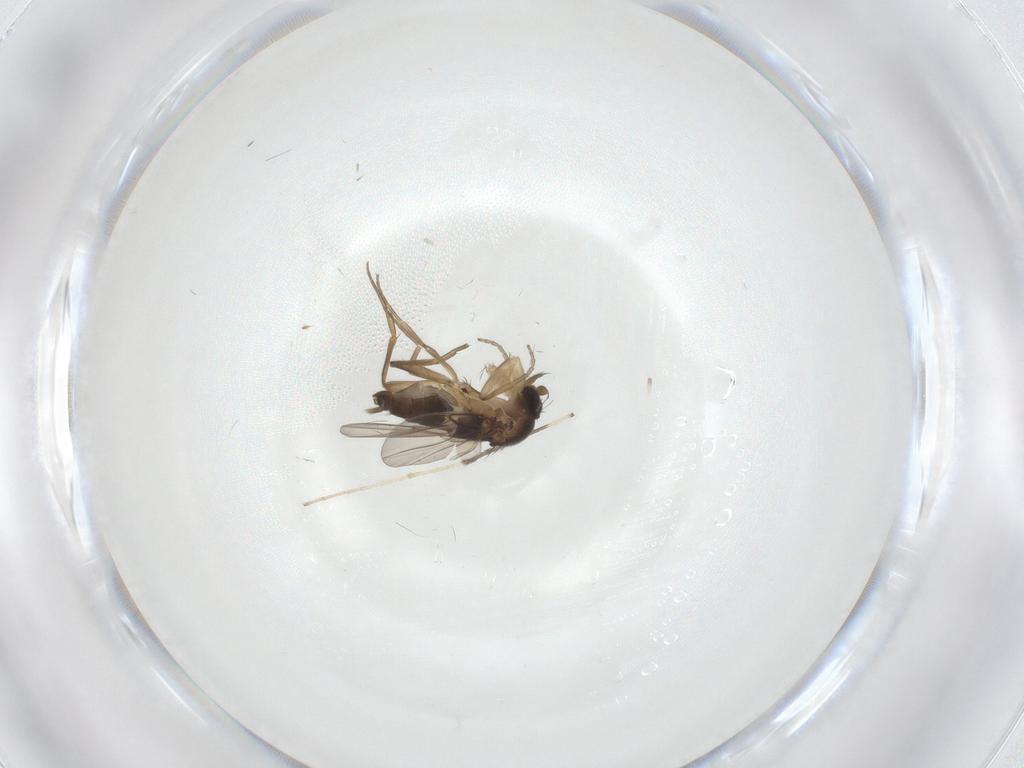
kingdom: Animalia
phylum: Arthropoda
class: Insecta
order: Diptera
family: Phoridae
